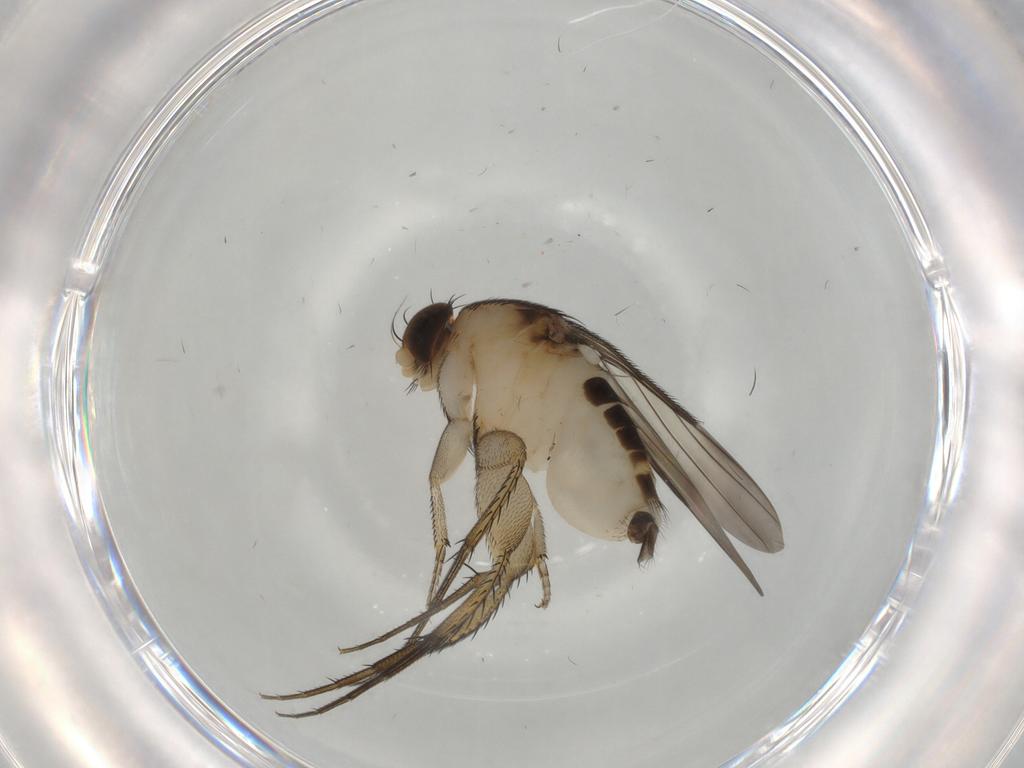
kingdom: Animalia
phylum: Arthropoda
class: Insecta
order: Diptera
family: Phoridae
